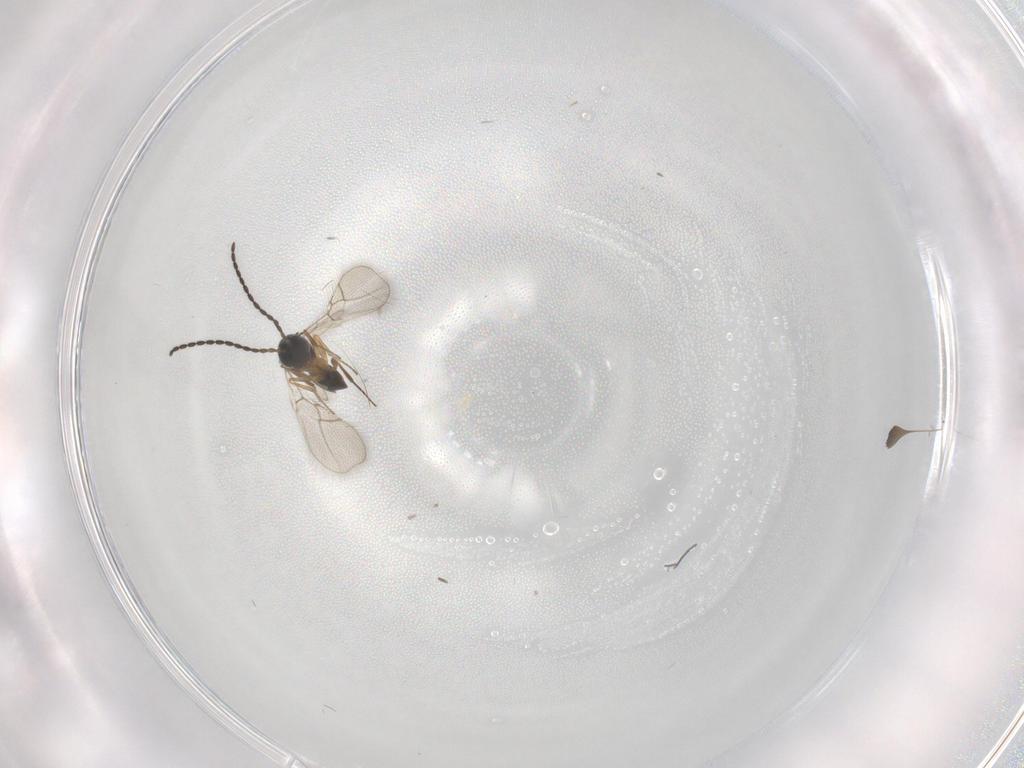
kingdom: Animalia
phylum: Arthropoda
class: Insecta
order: Hymenoptera
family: Figitidae
